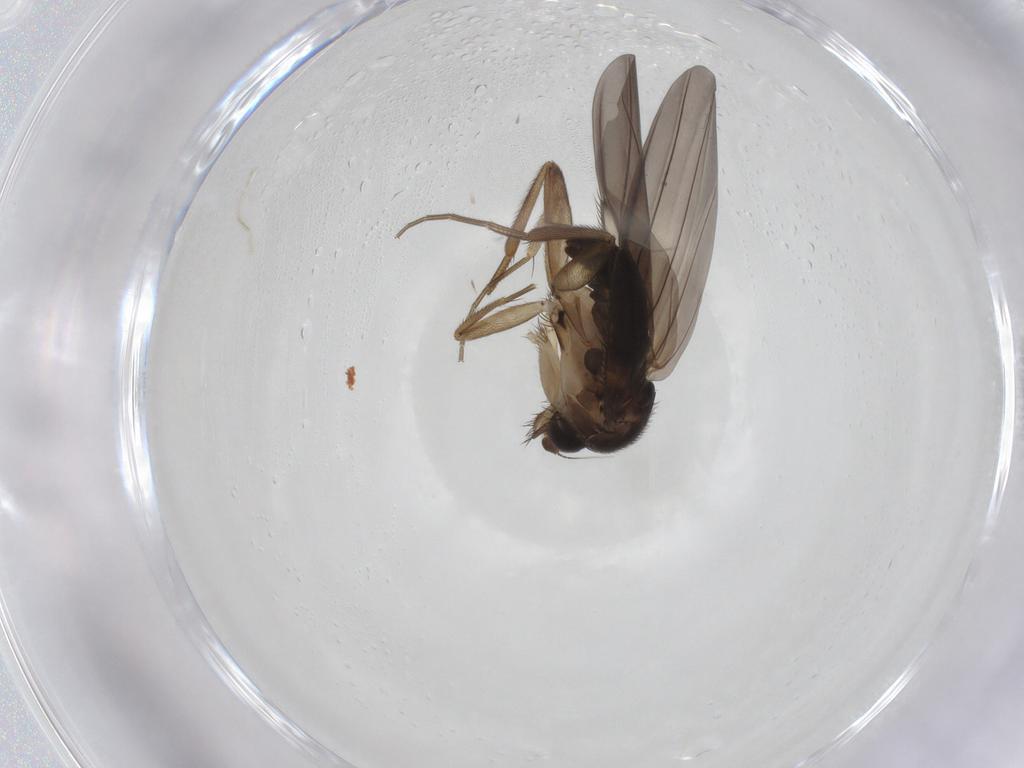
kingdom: Animalia
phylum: Arthropoda
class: Insecta
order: Diptera
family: Phoridae
